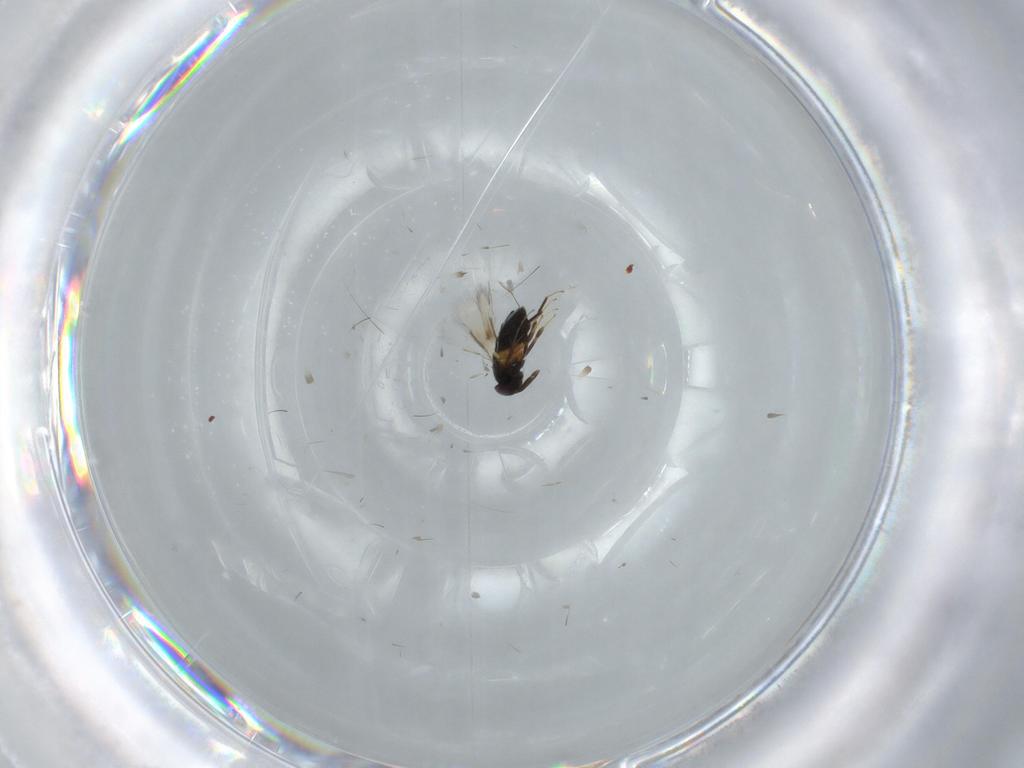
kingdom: Animalia
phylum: Arthropoda
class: Insecta
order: Hymenoptera
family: Signiphoridae
